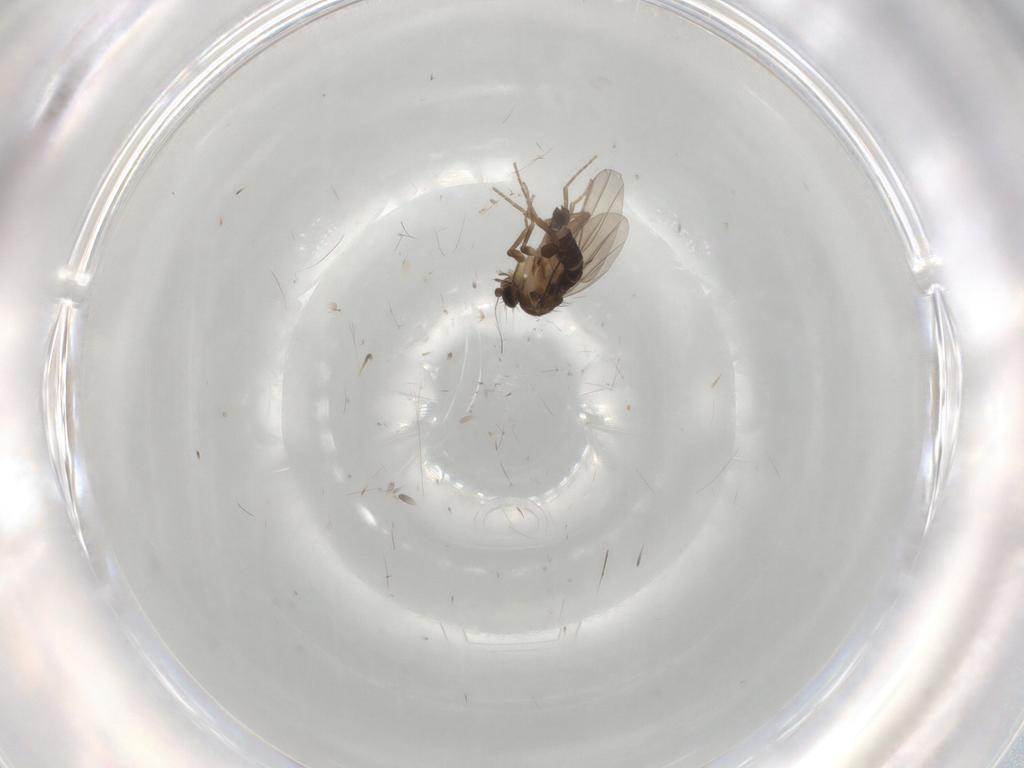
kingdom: Animalia
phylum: Arthropoda
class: Insecta
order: Diptera
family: Phoridae
